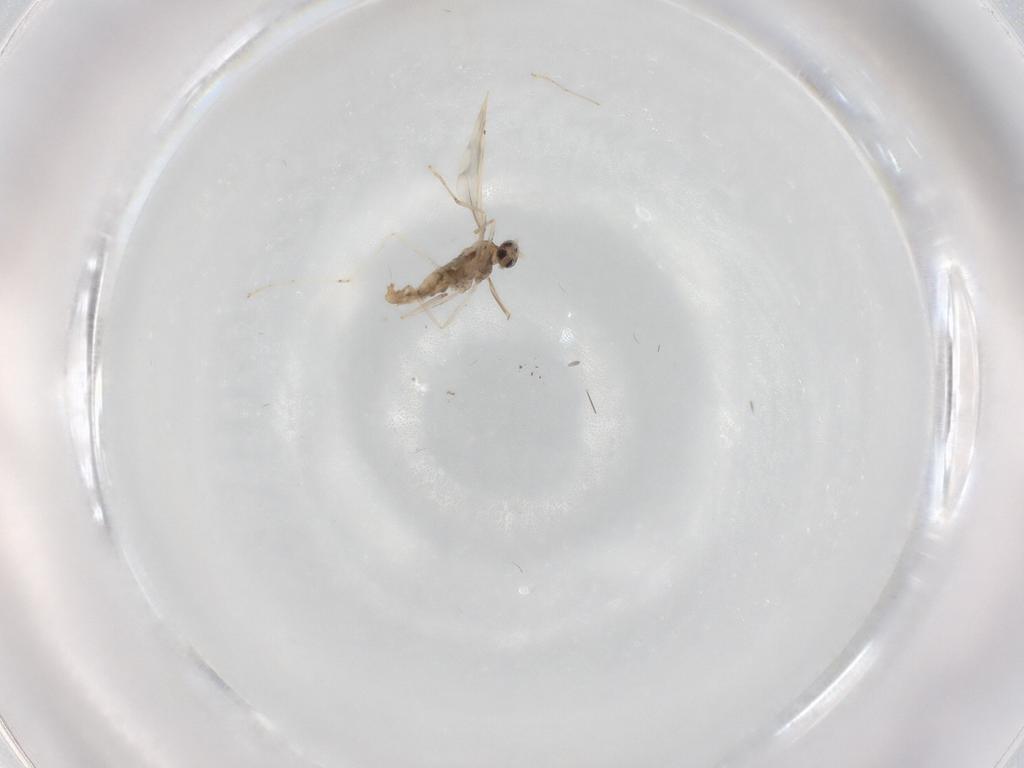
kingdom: Animalia
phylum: Arthropoda
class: Insecta
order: Diptera
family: Cecidomyiidae
